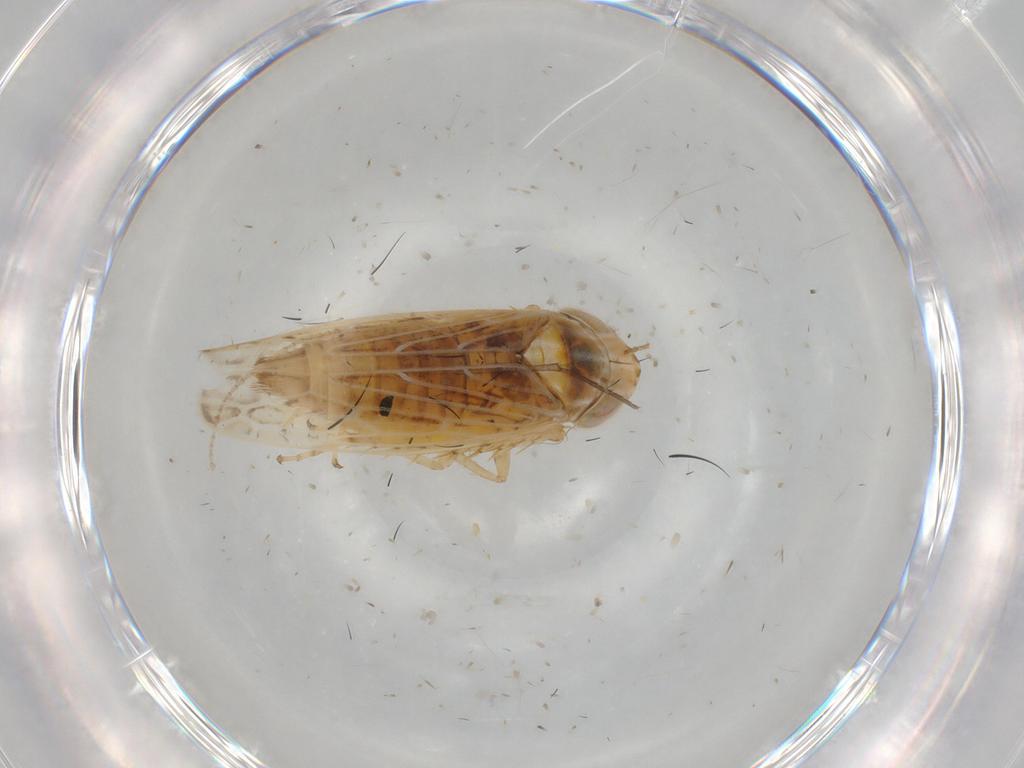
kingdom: Animalia
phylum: Arthropoda
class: Insecta
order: Hemiptera
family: Cicadellidae
